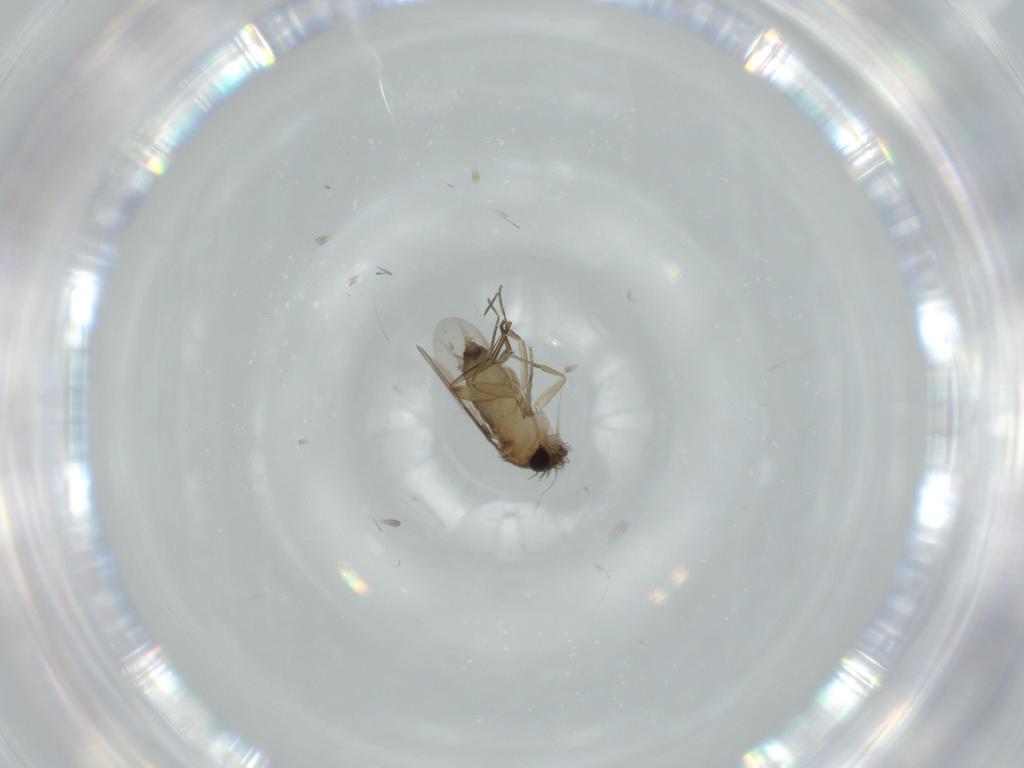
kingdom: Animalia
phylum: Arthropoda
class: Insecta
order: Diptera
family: Phoridae
